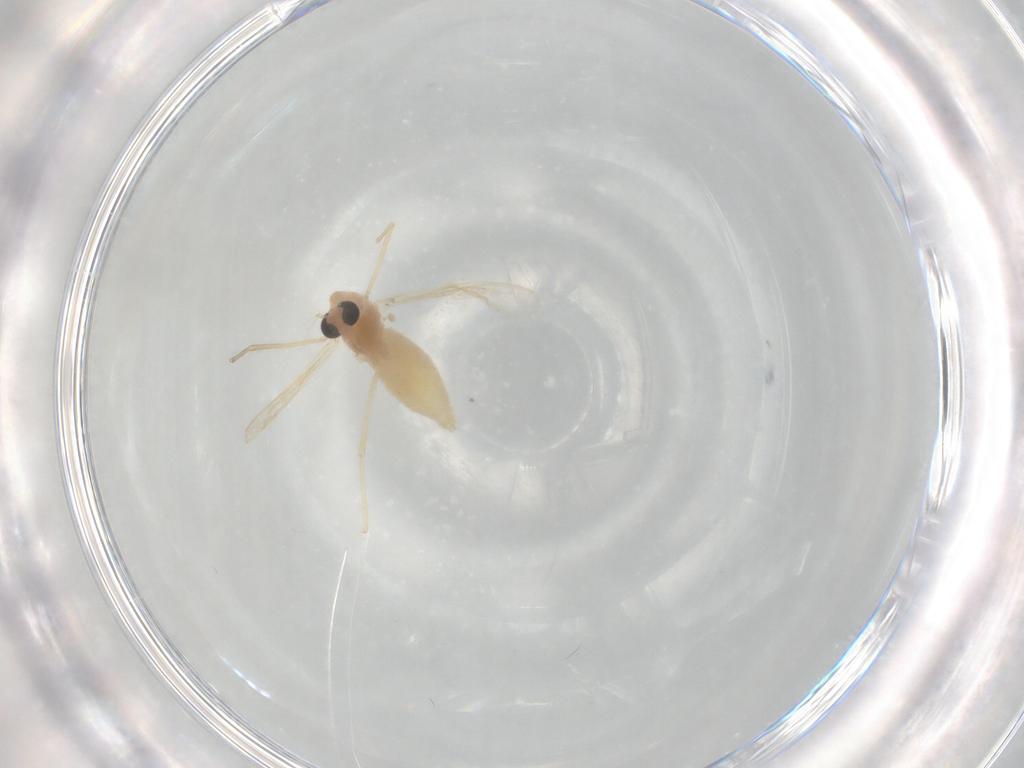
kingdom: Animalia
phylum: Arthropoda
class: Insecta
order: Diptera
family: Chironomidae
